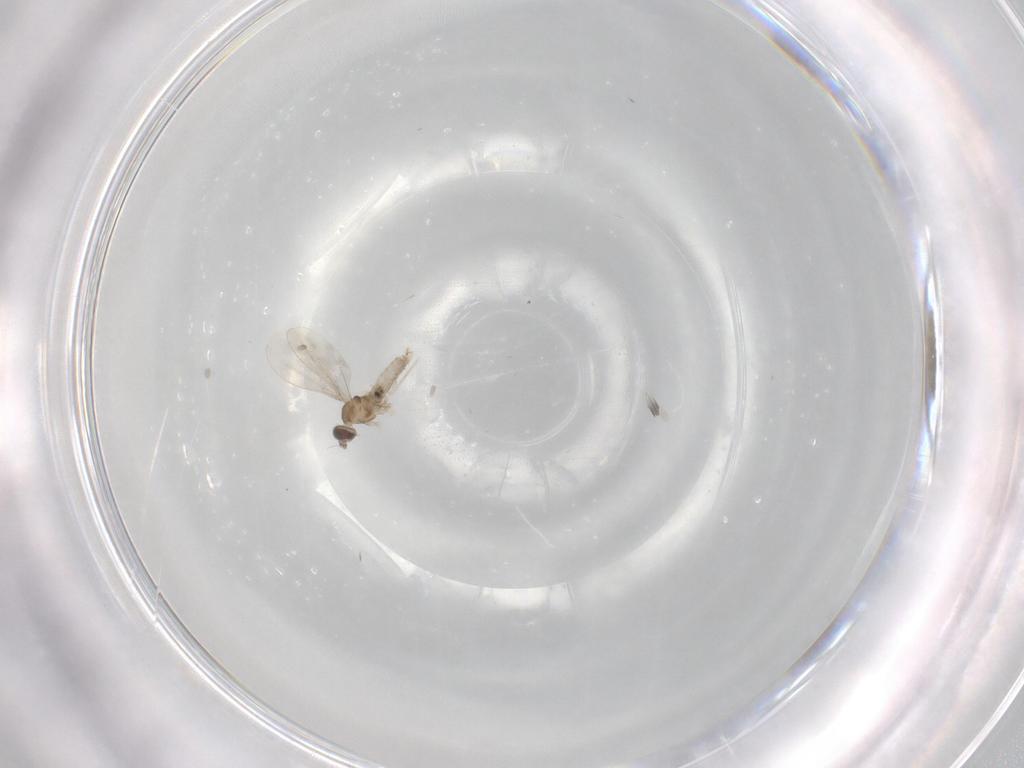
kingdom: Animalia
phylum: Arthropoda
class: Insecta
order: Diptera
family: Cecidomyiidae
